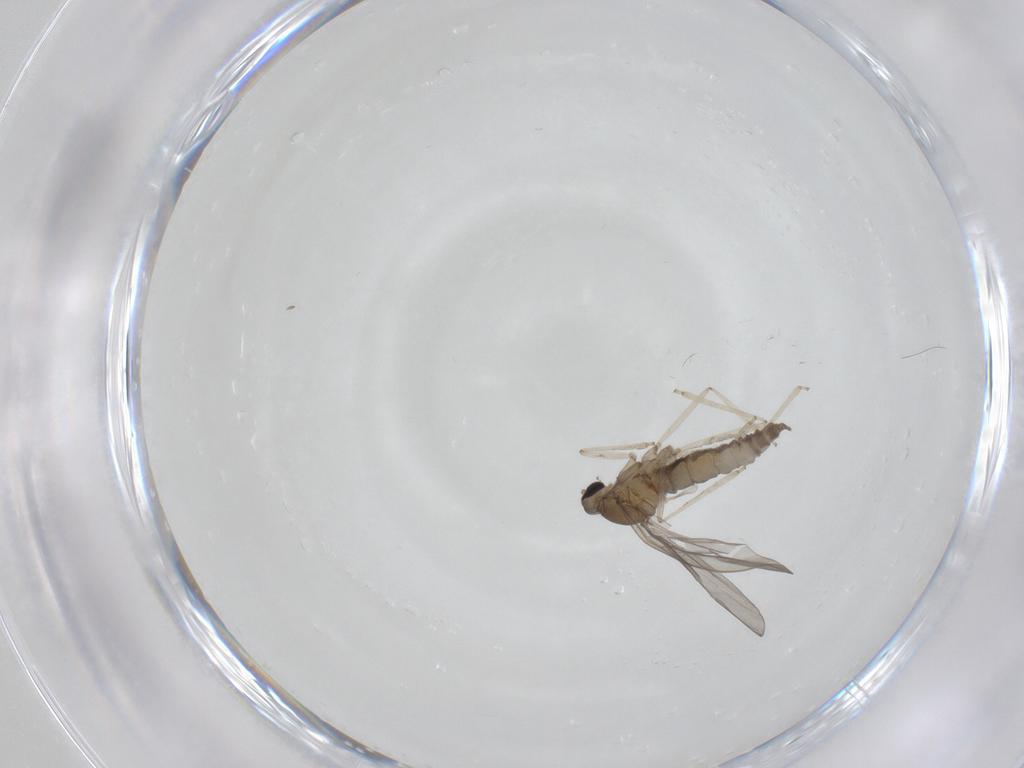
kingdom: Animalia
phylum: Arthropoda
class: Insecta
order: Diptera
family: Cecidomyiidae
